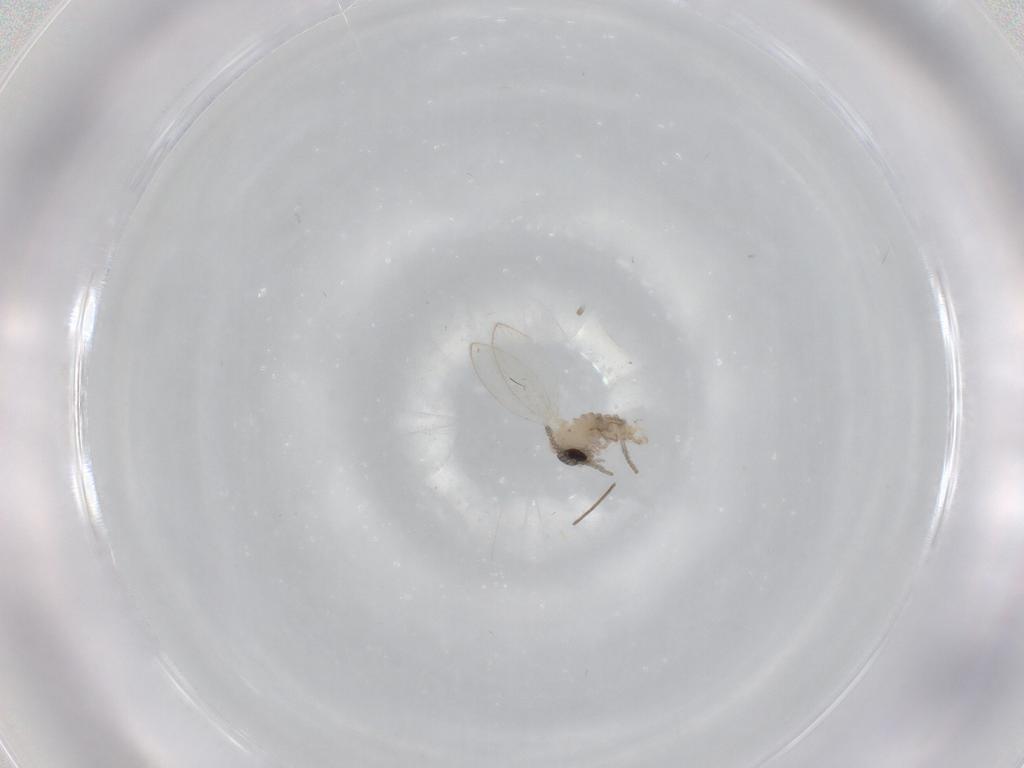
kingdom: Animalia
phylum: Arthropoda
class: Insecta
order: Diptera
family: Psychodidae
